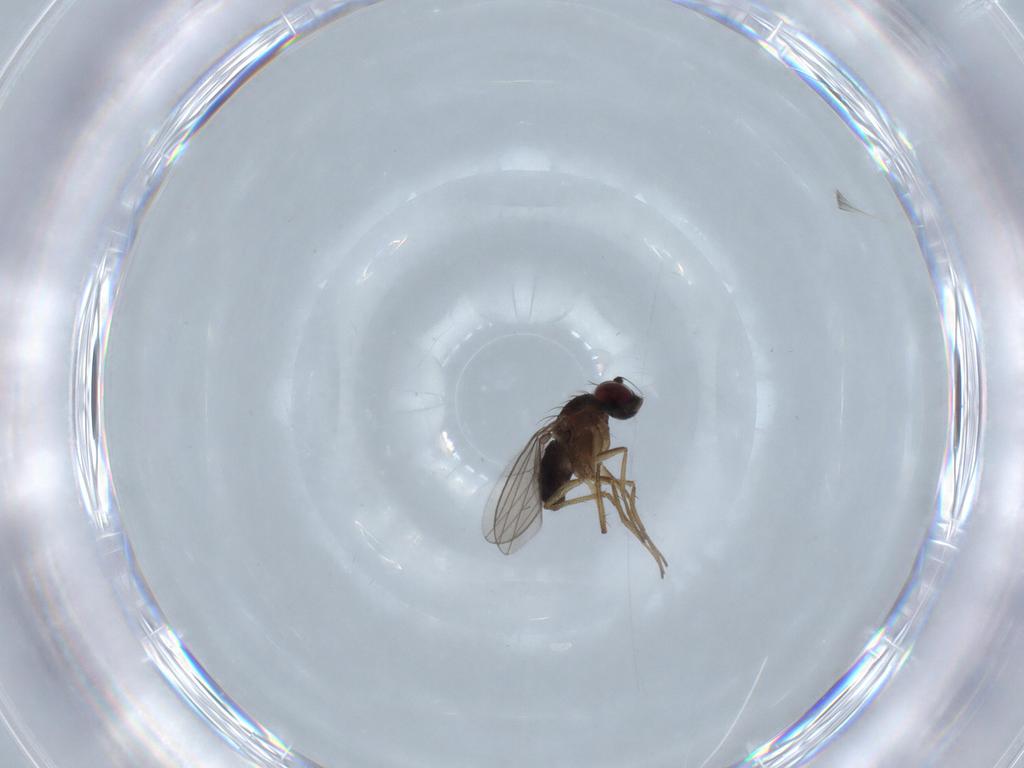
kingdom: Animalia
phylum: Arthropoda
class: Insecta
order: Diptera
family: Dolichopodidae
